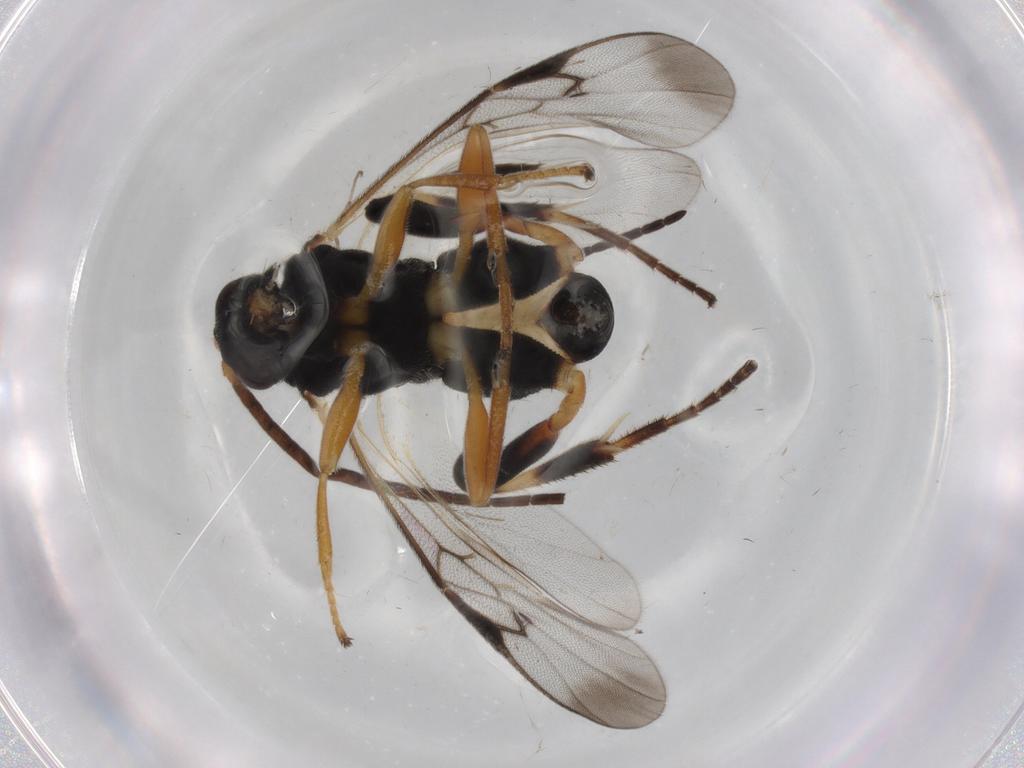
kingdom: Animalia
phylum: Arthropoda
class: Insecta
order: Hymenoptera
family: Braconidae
